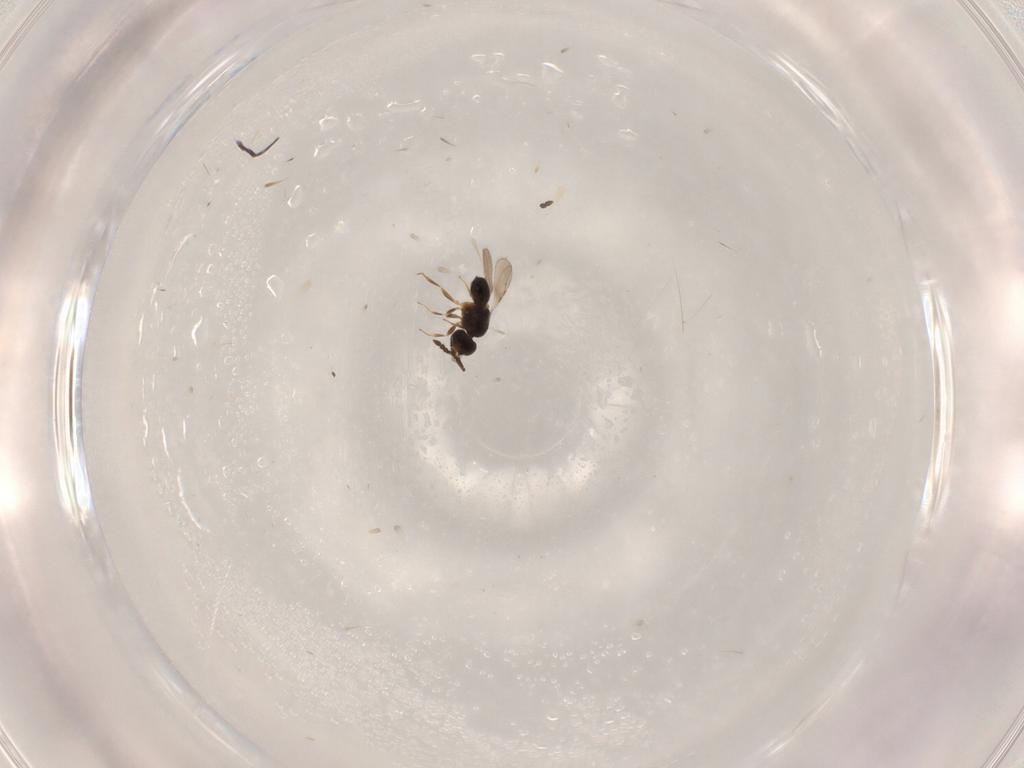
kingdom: Animalia
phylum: Arthropoda
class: Insecta
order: Hymenoptera
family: Ceraphronidae
